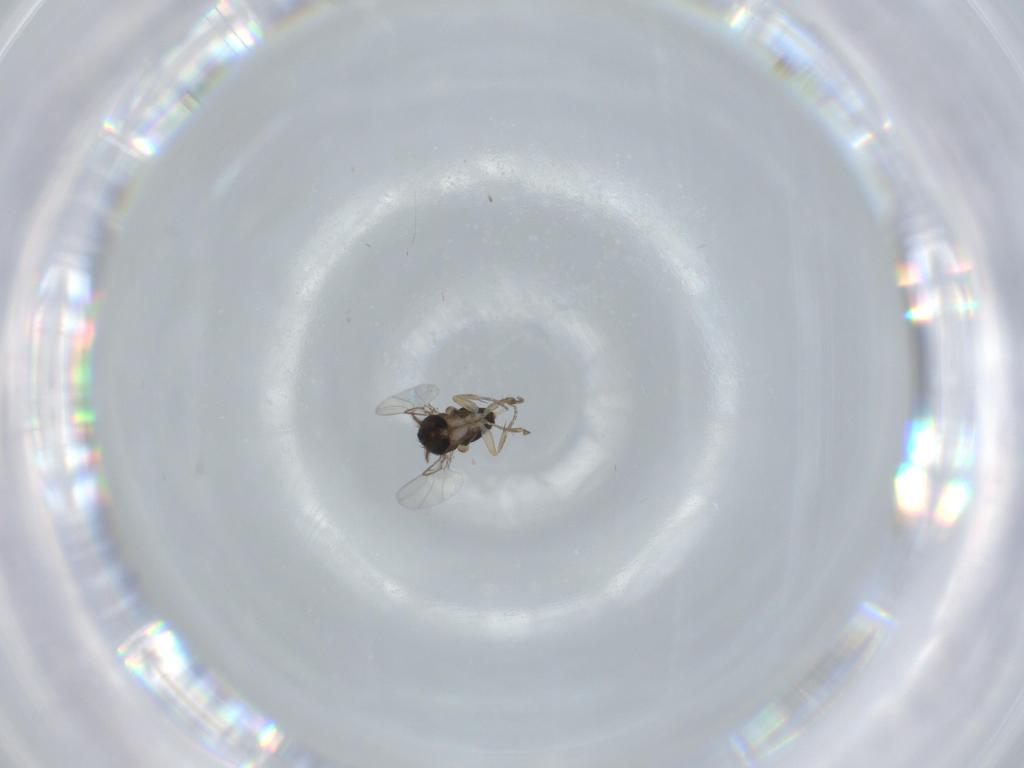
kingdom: Animalia
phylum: Arthropoda
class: Insecta
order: Diptera
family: Phoridae
